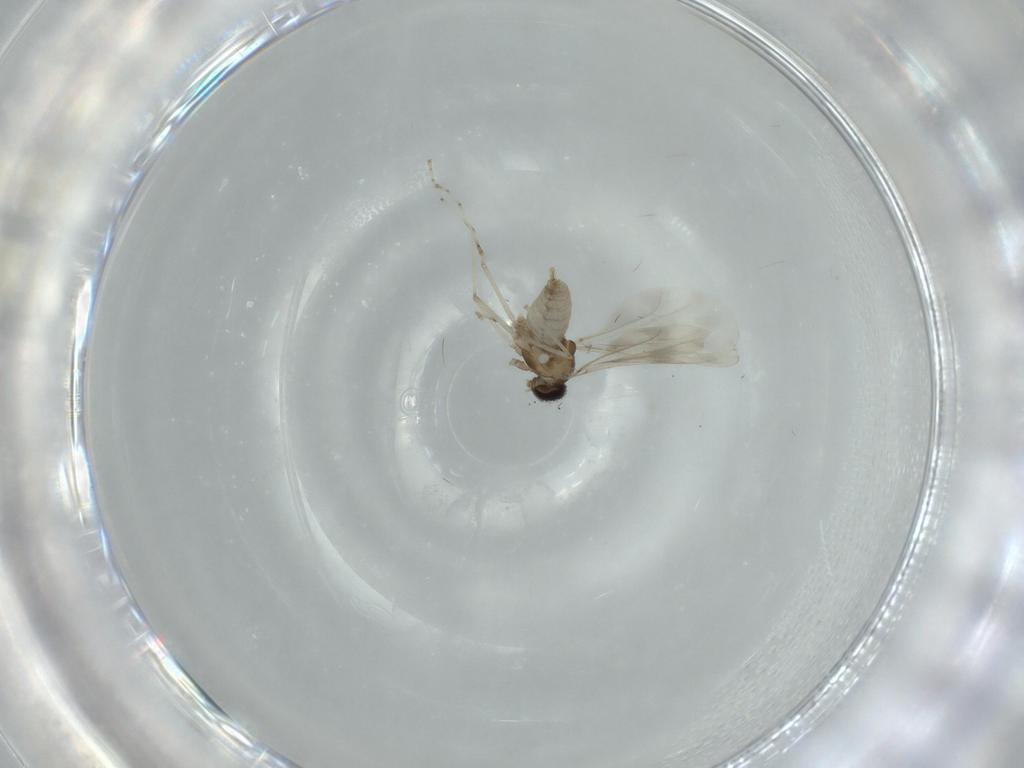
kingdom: Animalia
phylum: Arthropoda
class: Insecta
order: Diptera
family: Cecidomyiidae
